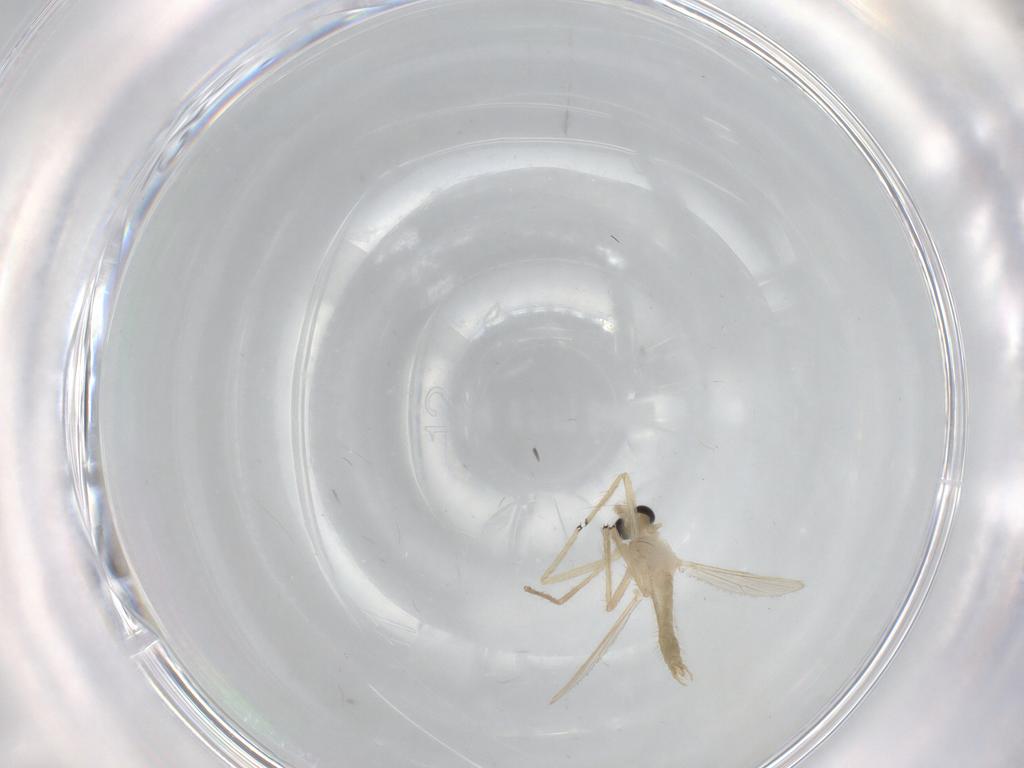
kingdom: Animalia
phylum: Arthropoda
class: Insecta
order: Diptera
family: Chironomidae
